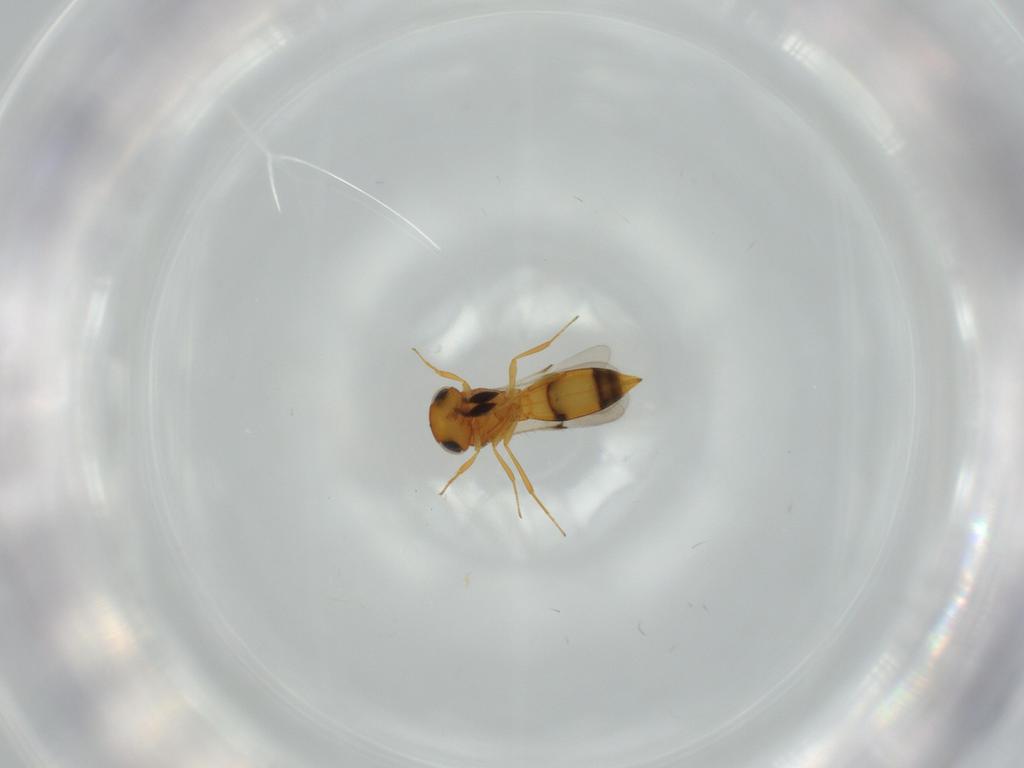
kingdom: Animalia
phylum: Arthropoda
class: Insecta
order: Hymenoptera
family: Scelionidae
